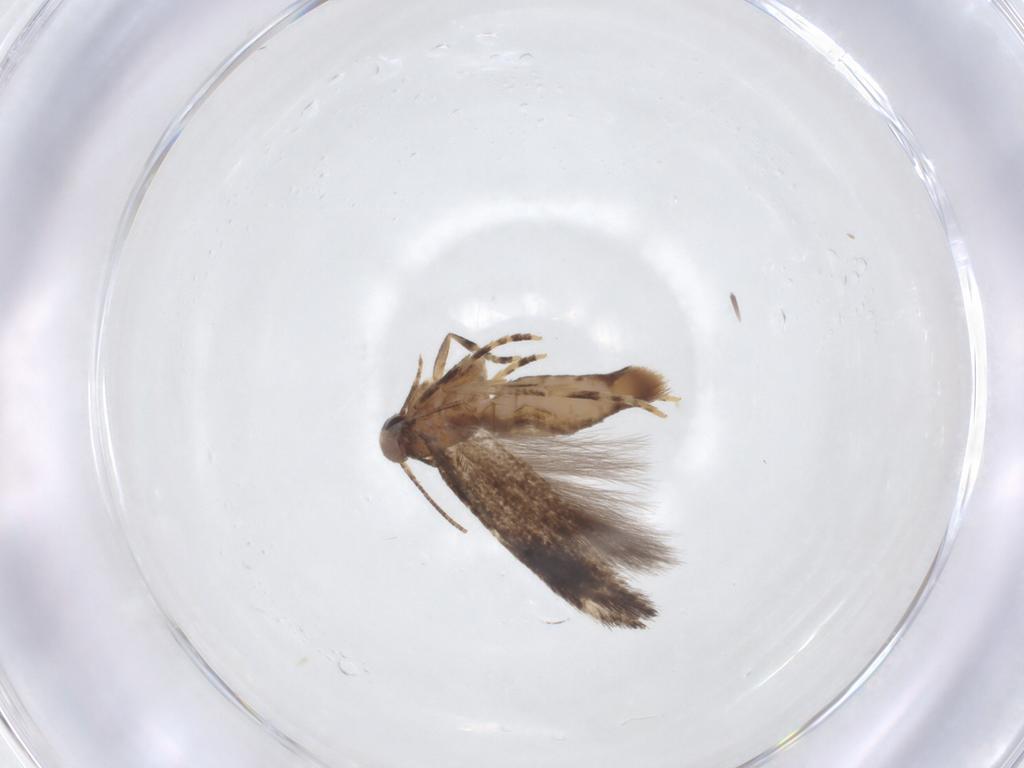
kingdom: Animalia
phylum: Arthropoda
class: Insecta
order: Lepidoptera
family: Elachistidae
